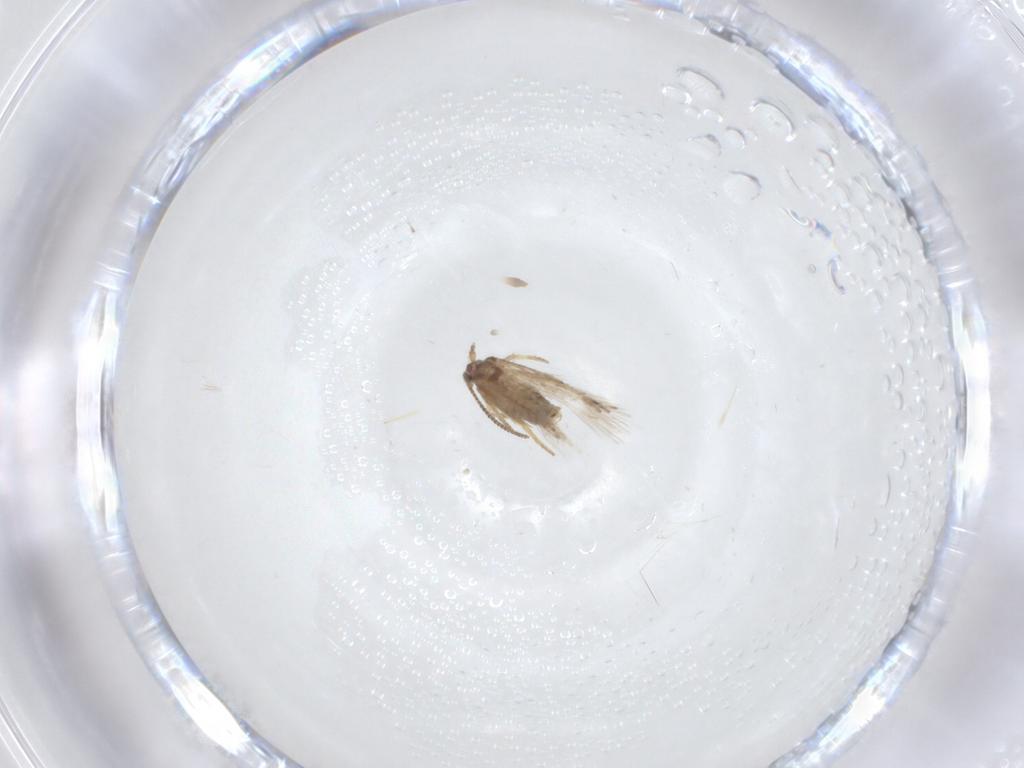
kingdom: Animalia
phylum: Arthropoda
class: Insecta
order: Lepidoptera
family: Nepticulidae
